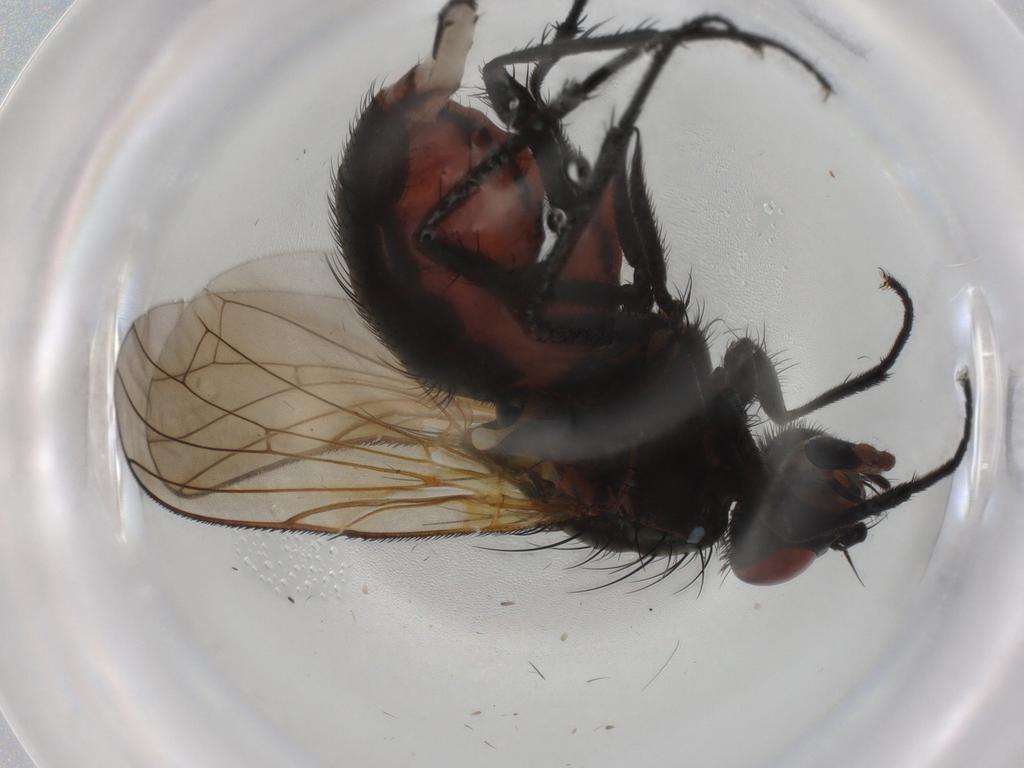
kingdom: Animalia
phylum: Arthropoda
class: Insecta
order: Diptera
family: Anthomyiidae
